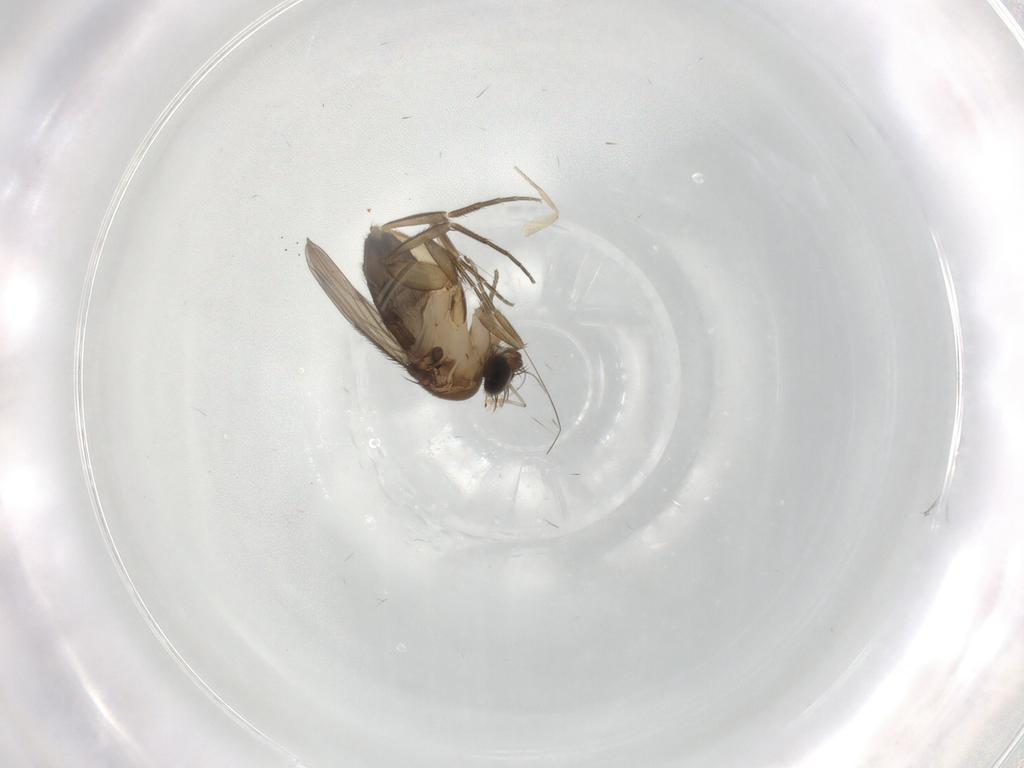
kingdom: Animalia
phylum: Arthropoda
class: Insecta
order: Diptera
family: Phoridae
